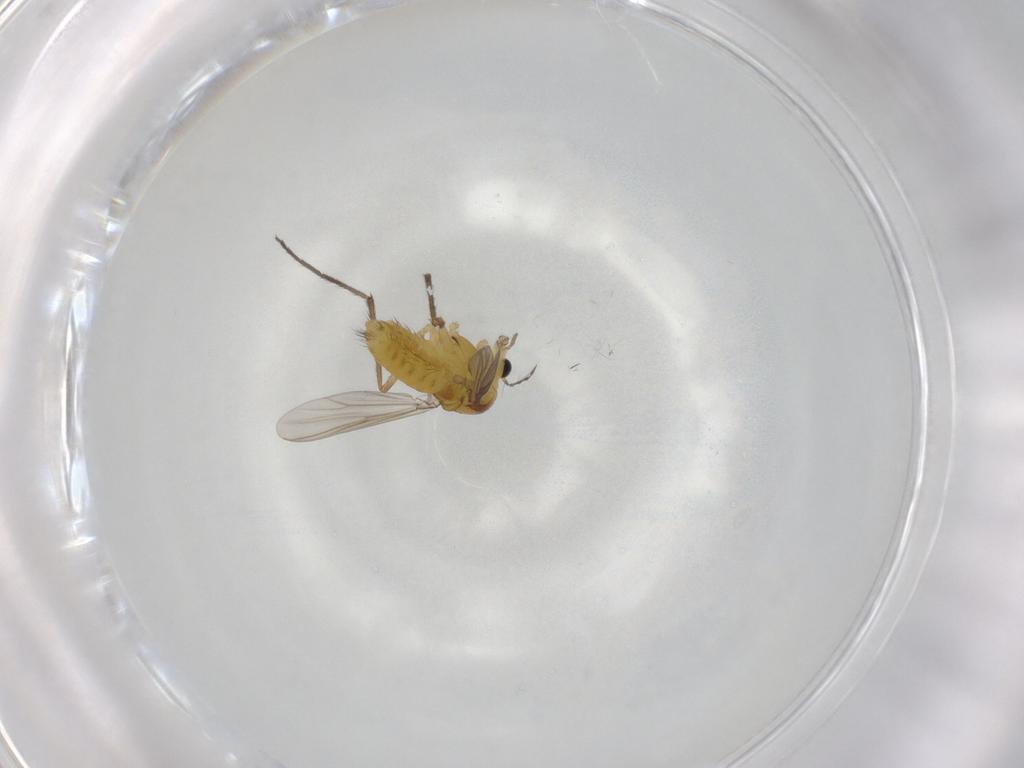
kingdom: Animalia
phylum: Arthropoda
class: Insecta
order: Diptera
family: Chironomidae
